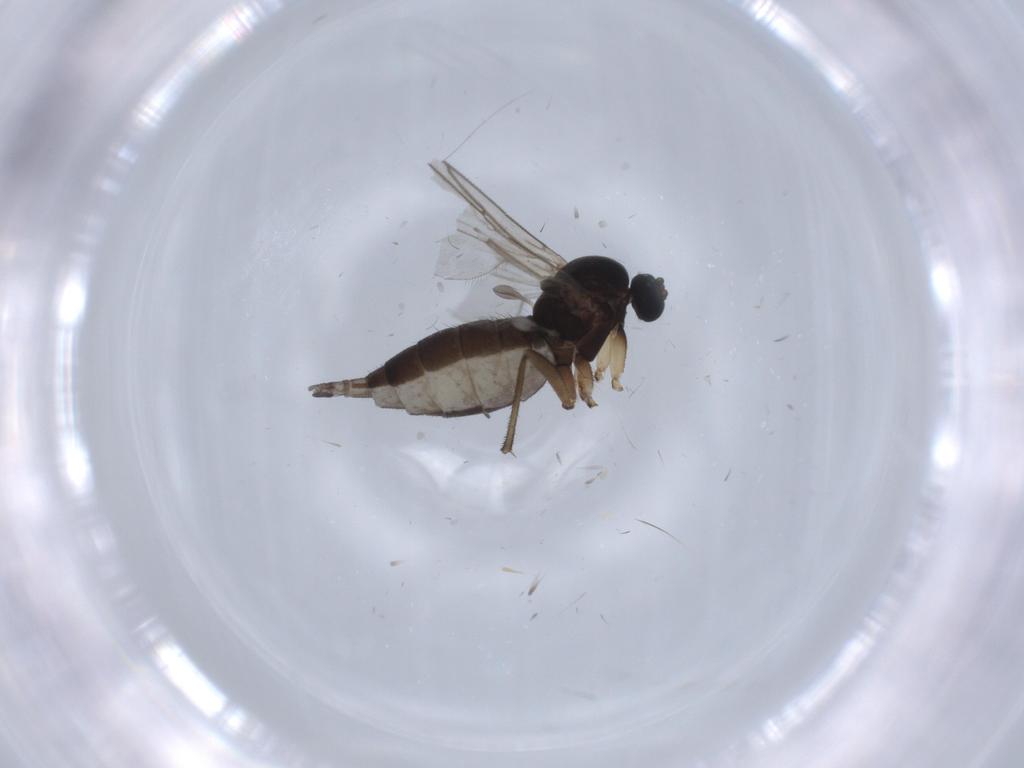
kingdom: Animalia
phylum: Arthropoda
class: Insecta
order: Diptera
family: Sciaridae
